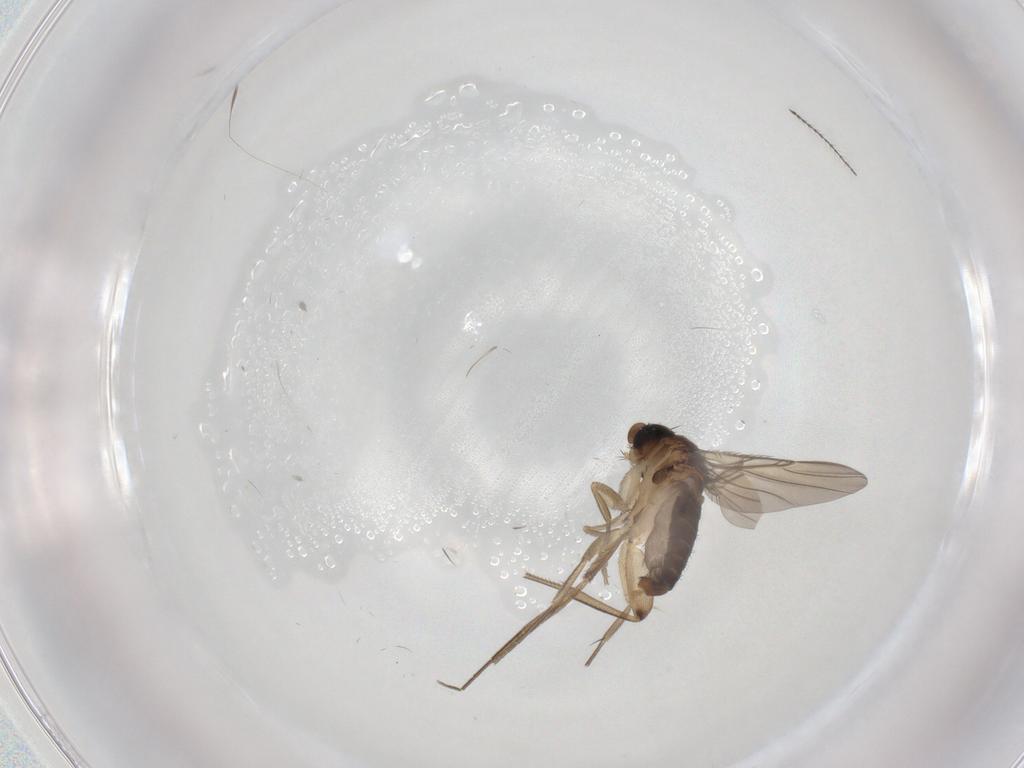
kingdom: Animalia
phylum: Arthropoda
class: Insecta
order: Diptera
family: Phoridae
